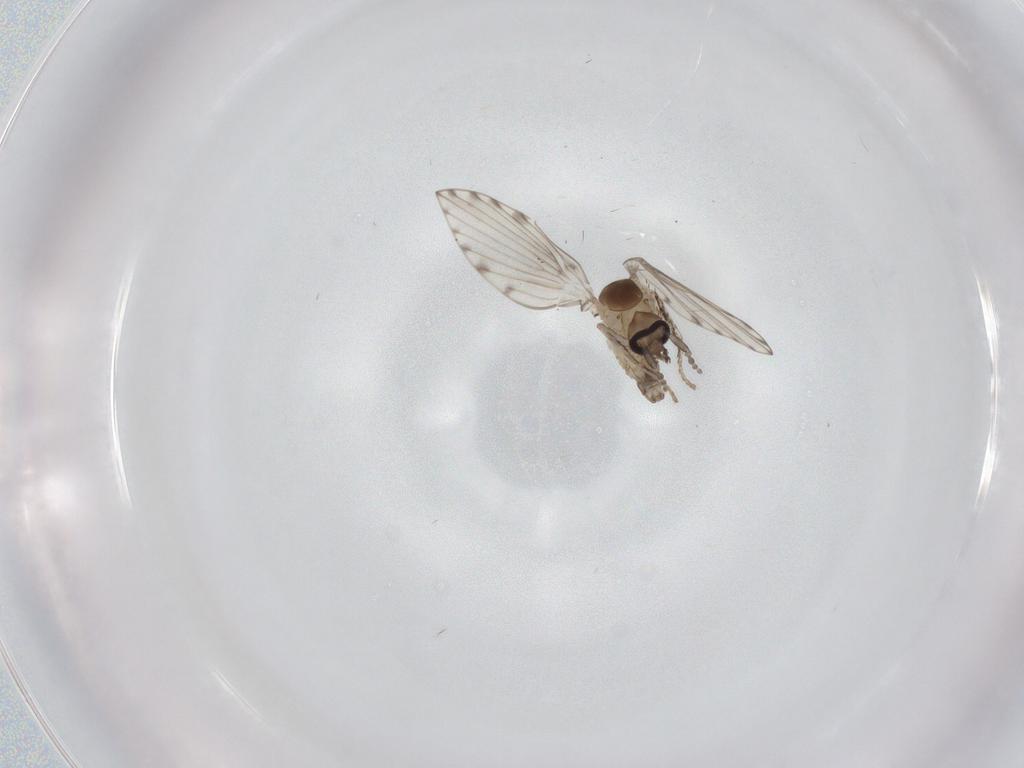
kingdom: Animalia
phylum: Arthropoda
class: Insecta
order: Diptera
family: Psychodidae
